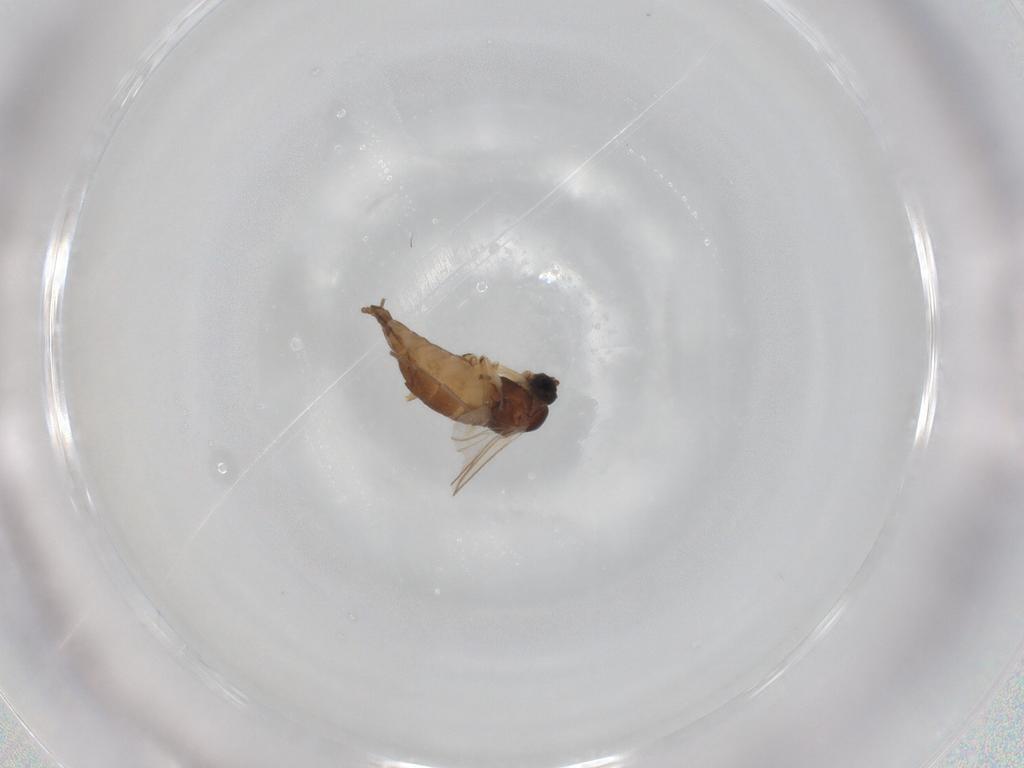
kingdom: Animalia
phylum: Arthropoda
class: Insecta
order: Diptera
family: Sciaridae
